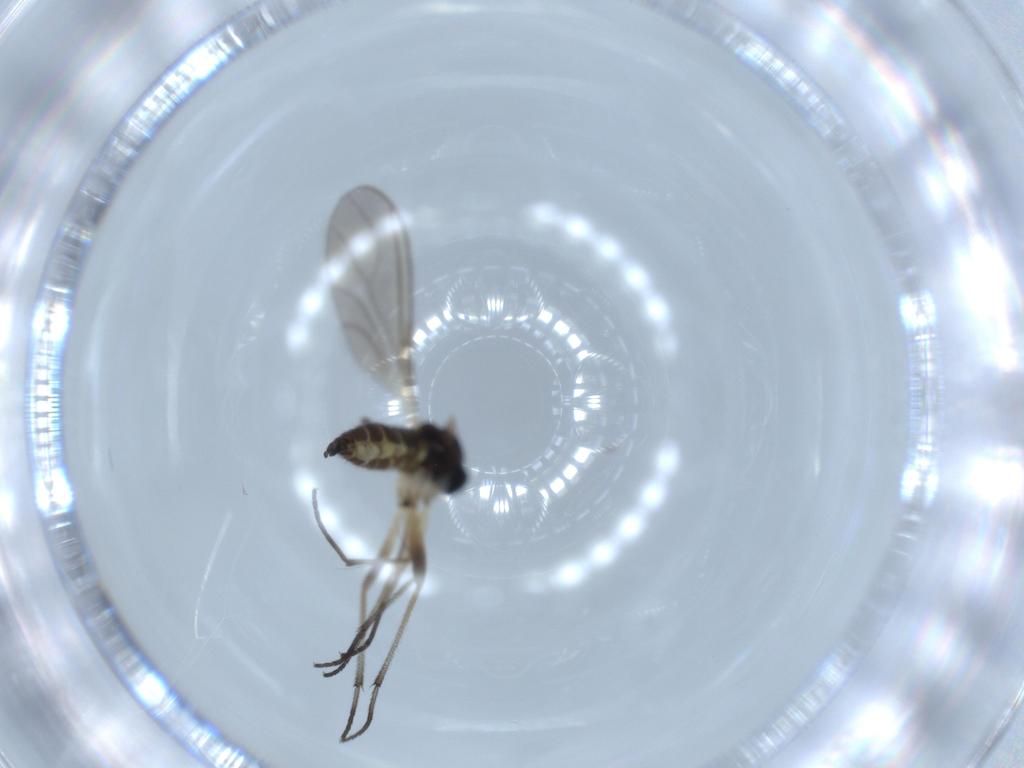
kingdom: Animalia
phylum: Arthropoda
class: Insecta
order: Diptera
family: Sciaridae
